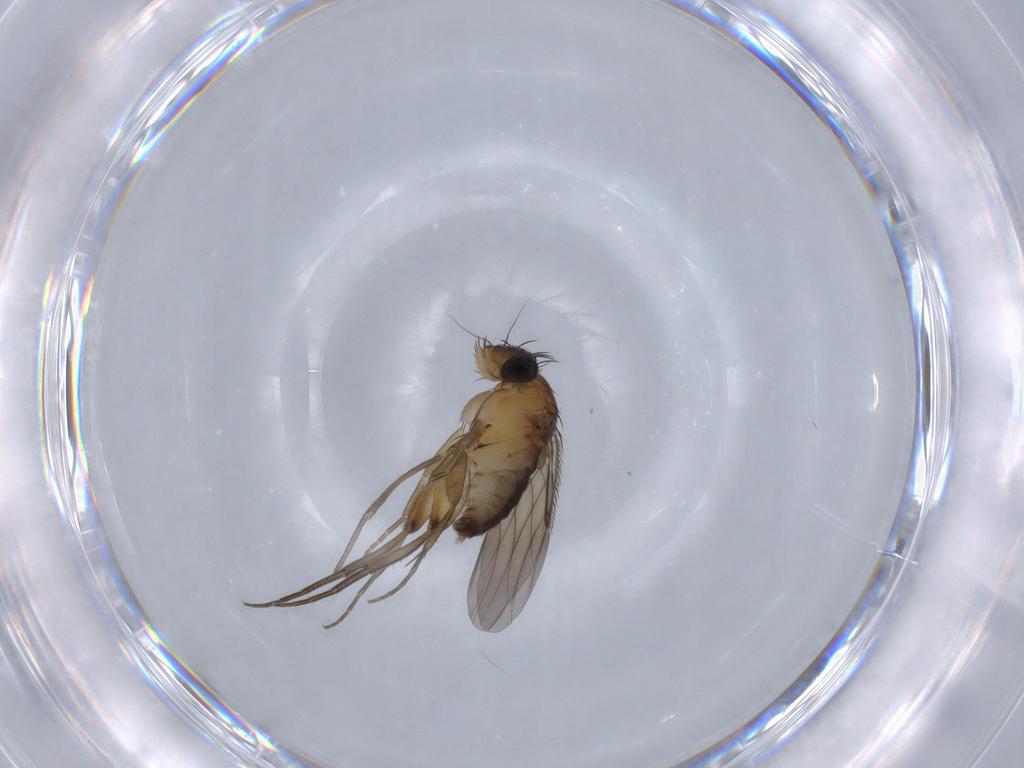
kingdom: Animalia
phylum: Arthropoda
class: Insecta
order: Diptera
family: Phoridae
